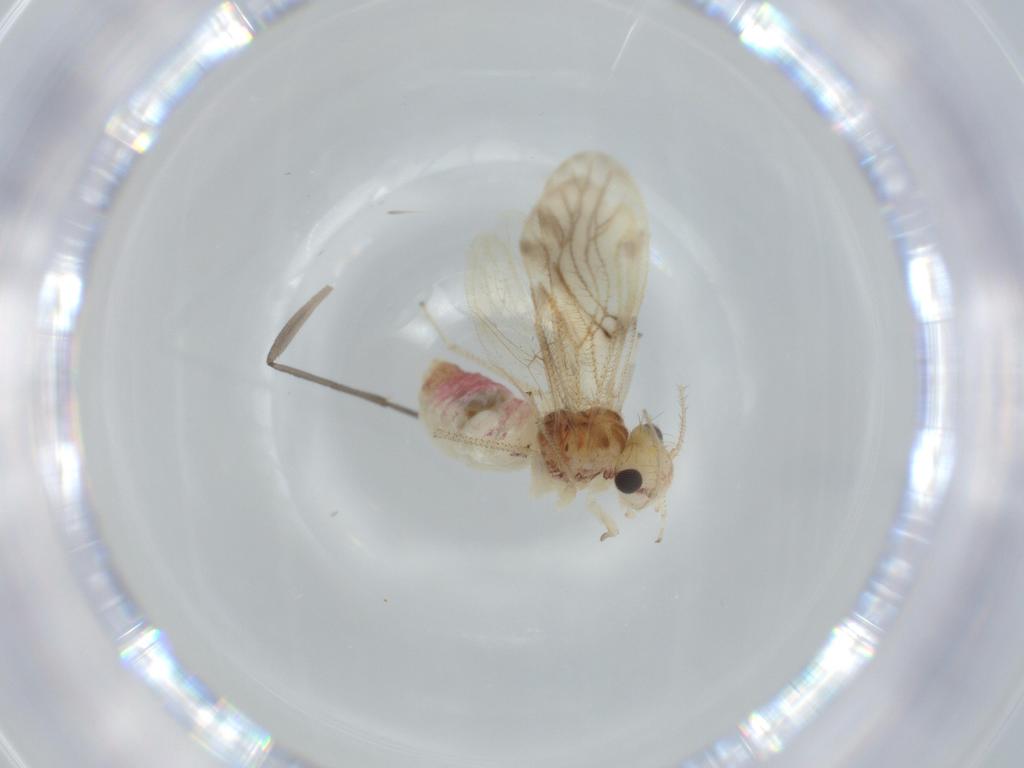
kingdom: Animalia
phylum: Arthropoda
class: Insecta
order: Psocodea
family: Pseudocaeciliidae
